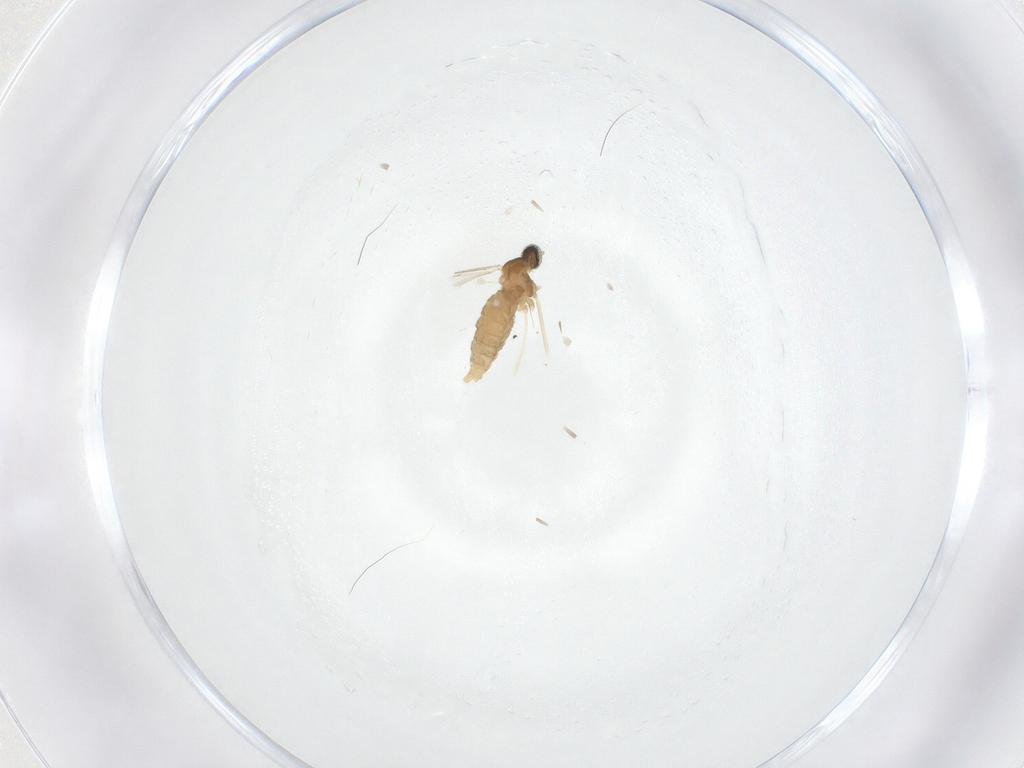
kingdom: Animalia
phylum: Arthropoda
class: Insecta
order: Diptera
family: Cecidomyiidae
